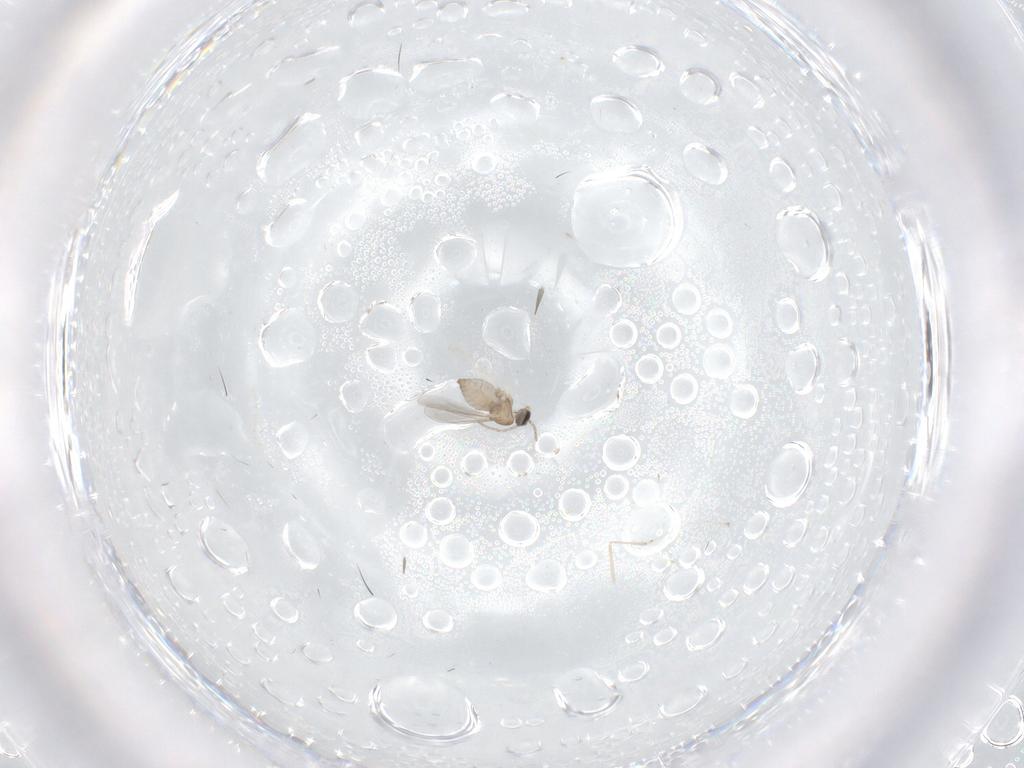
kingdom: Animalia
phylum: Arthropoda
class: Insecta
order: Diptera
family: Cecidomyiidae
